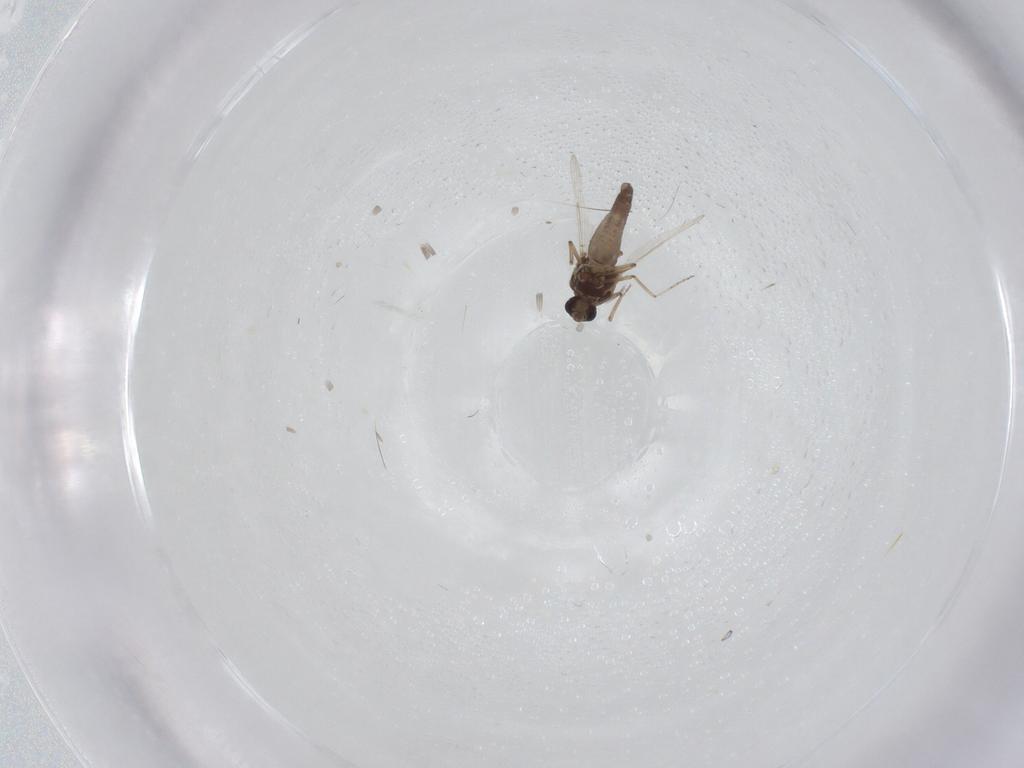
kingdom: Animalia
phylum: Arthropoda
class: Insecta
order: Diptera
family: Ceratopogonidae
